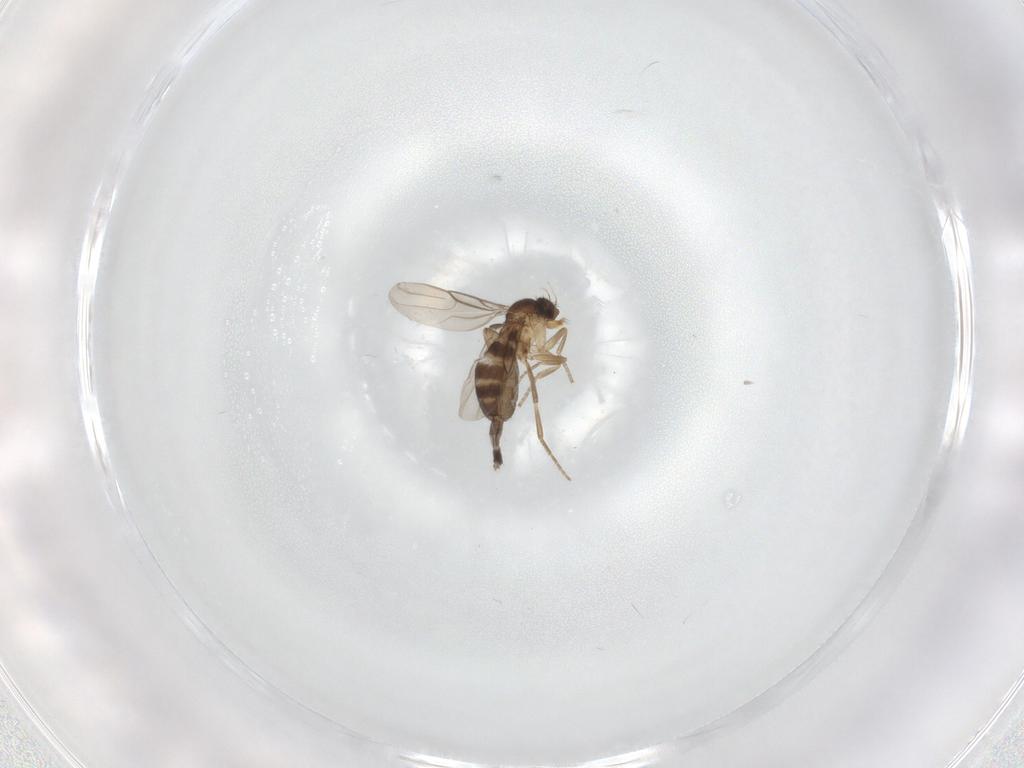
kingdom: Animalia
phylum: Arthropoda
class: Insecta
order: Diptera
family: Phoridae
